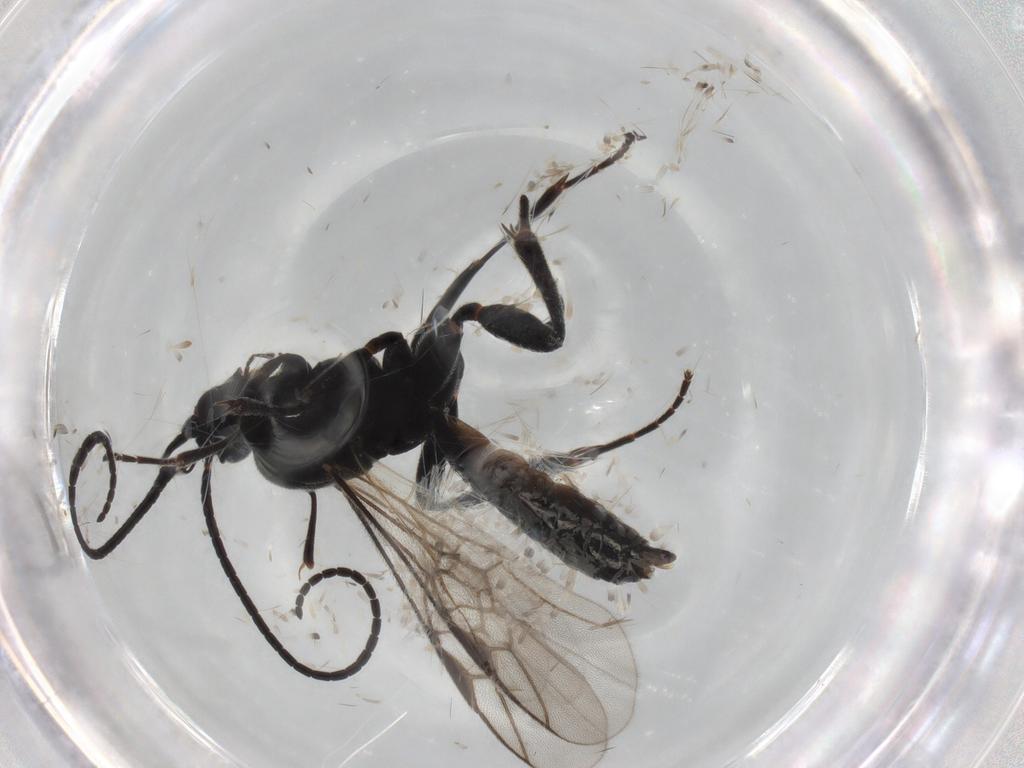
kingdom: Animalia
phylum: Arthropoda
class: Insecta
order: Hymenoptera
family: Braconidae
